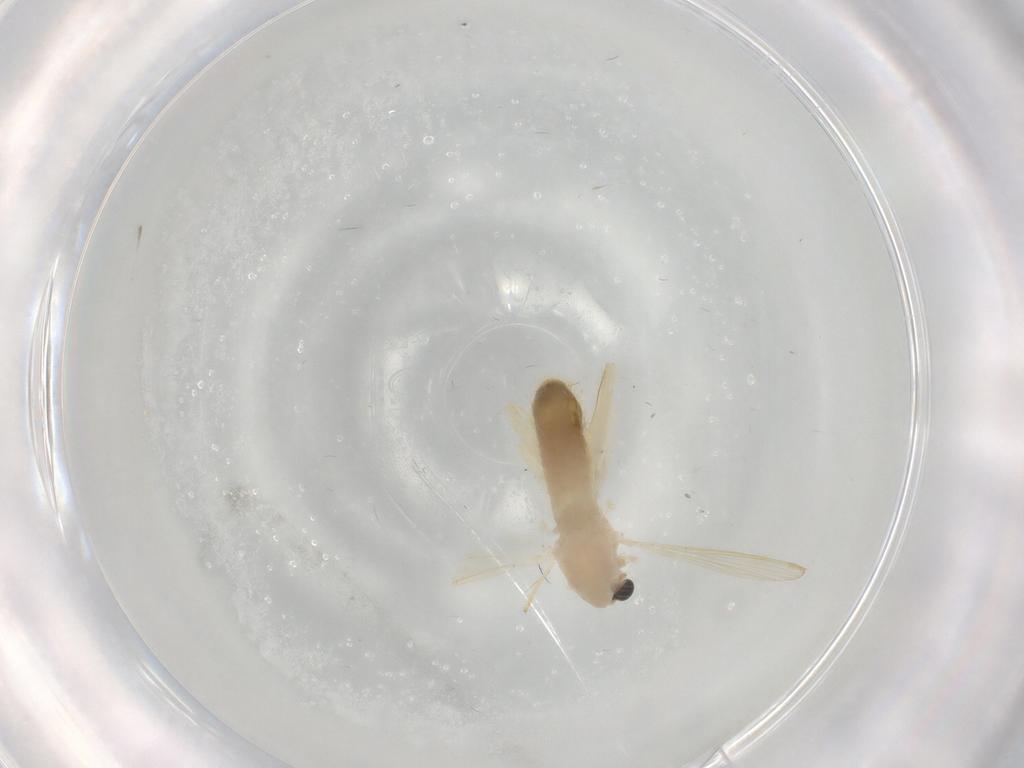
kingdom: Animalia
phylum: Arthropoda
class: Insecta
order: Diptera
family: Chironomidae
